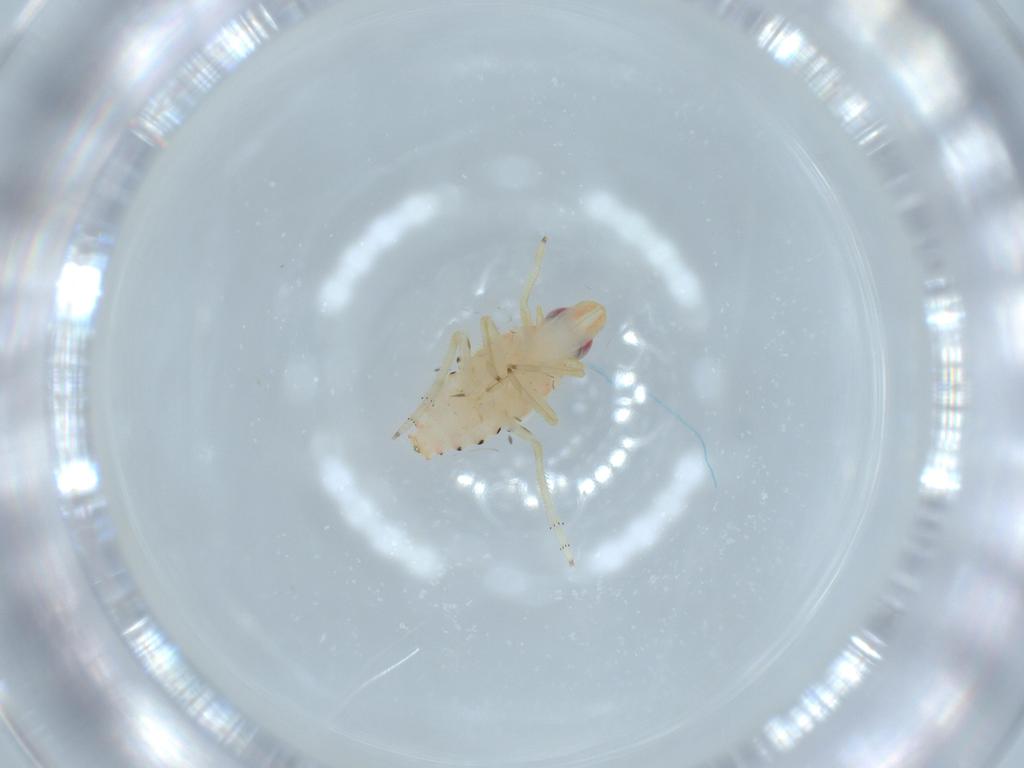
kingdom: Animalia
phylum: Arthropoda
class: Insecta
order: Hemiptera
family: Tropiduchidae
